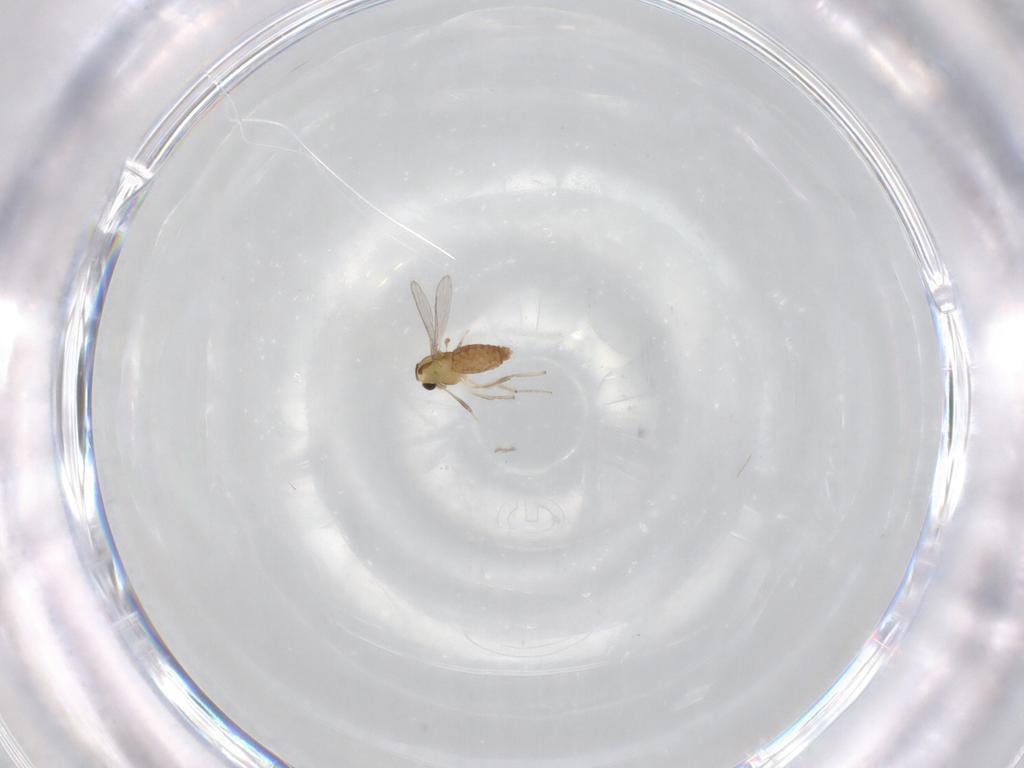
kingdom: Animalia
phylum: Arthropoda
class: Insecta
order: Diptera
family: Chironomidae
